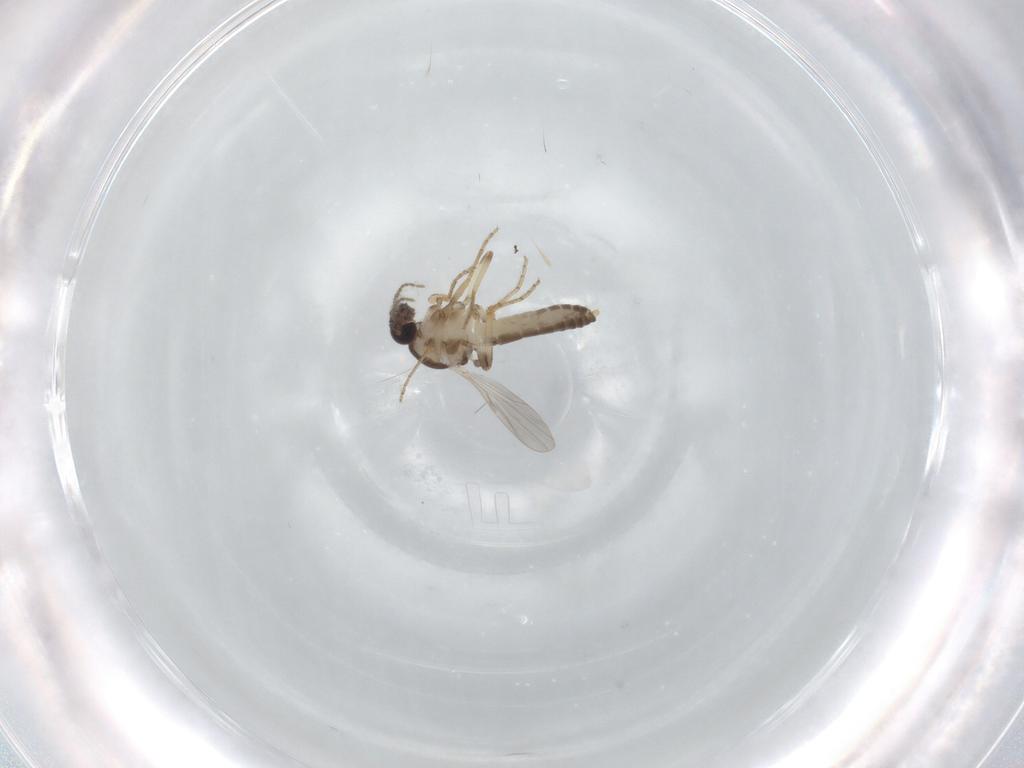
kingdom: Animalia
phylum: Arthropoda
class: Insecta
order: Diptera
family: Ceratopogonidae
